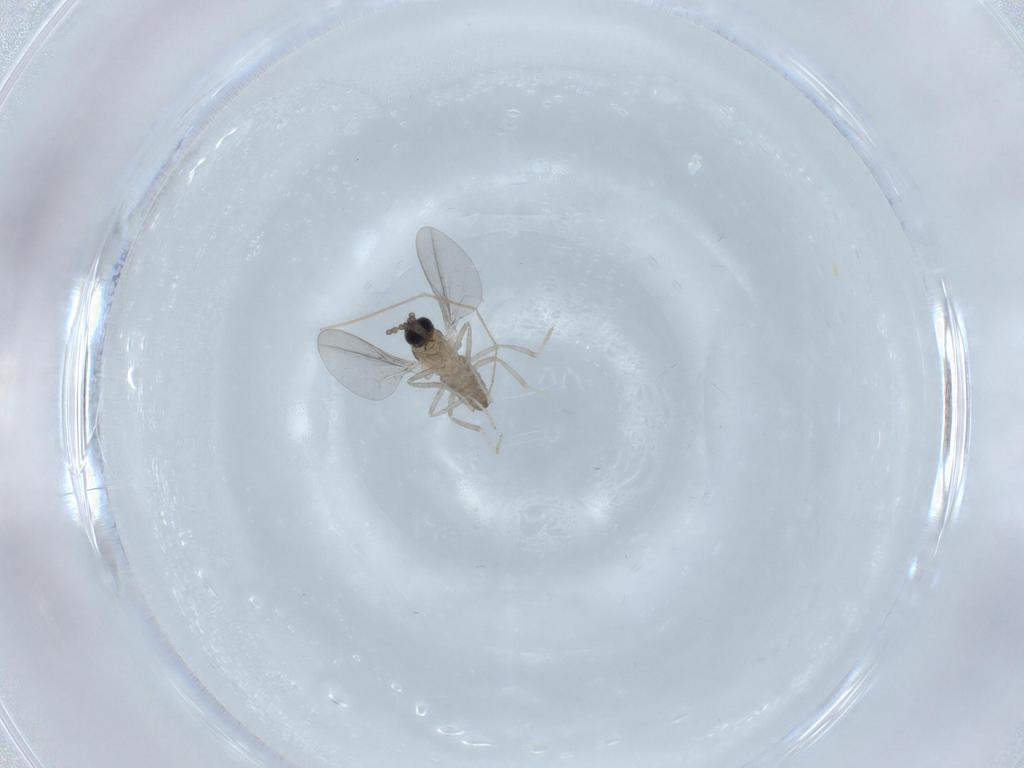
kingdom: Animalia
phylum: Arthropoda
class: Insecta
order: Diptera
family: Cecidomyiidae
